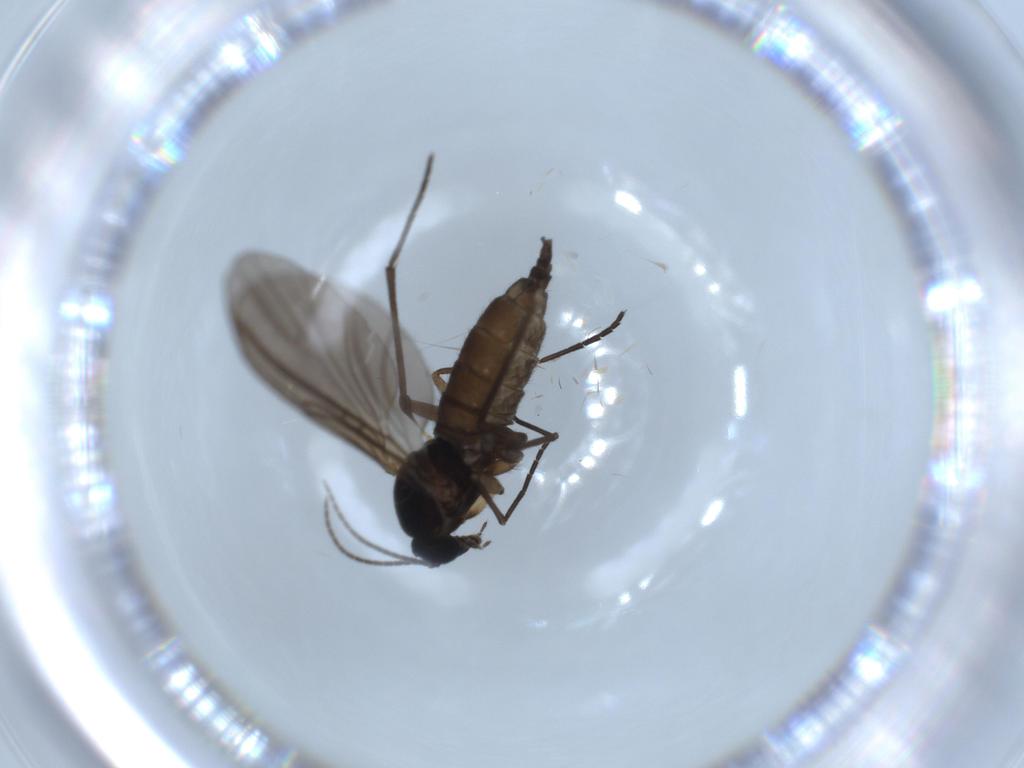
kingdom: Animalia
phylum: Arthropoda
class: Insecta
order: Diptera
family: Sciaridae
